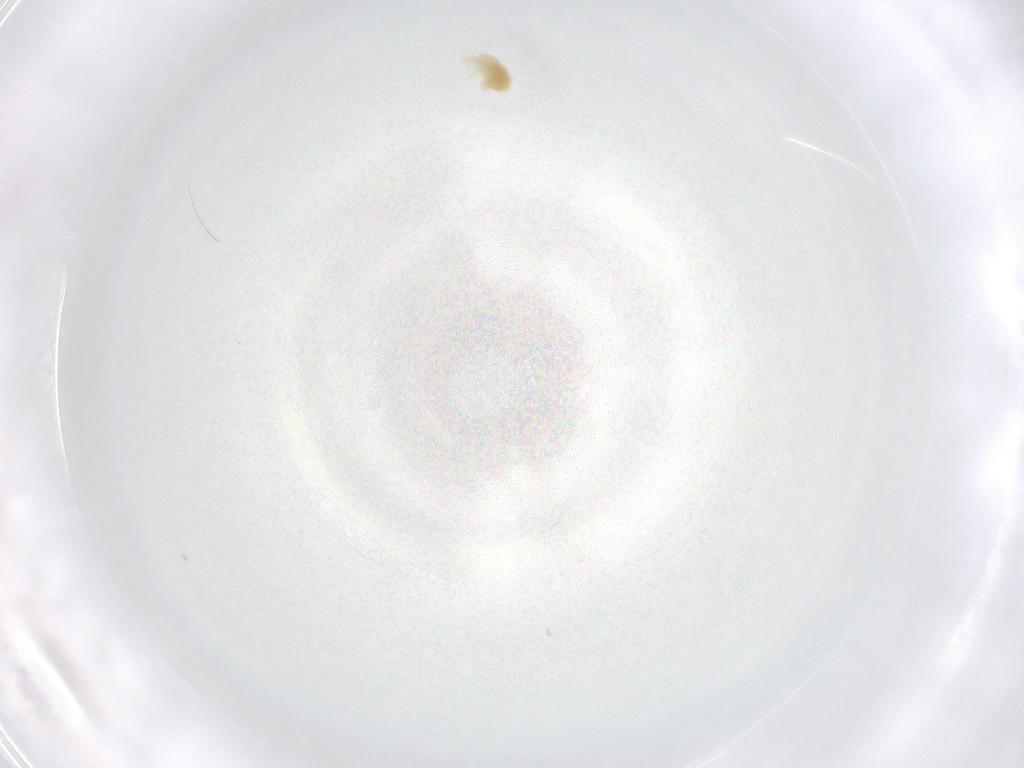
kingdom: Animalia
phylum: Arthropoda
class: Arachnida
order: Trombidiformes
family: Eupodidae
